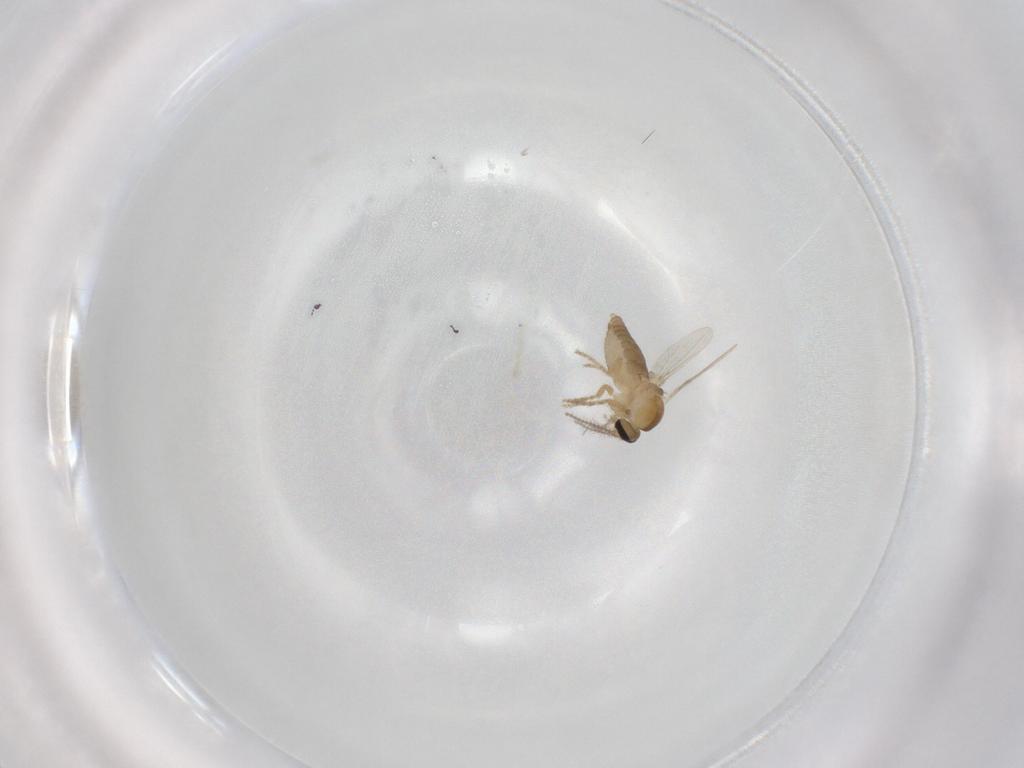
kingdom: Animalia
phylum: Arthropoda
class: Insecta
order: Diptera
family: Ceratopogonidae
